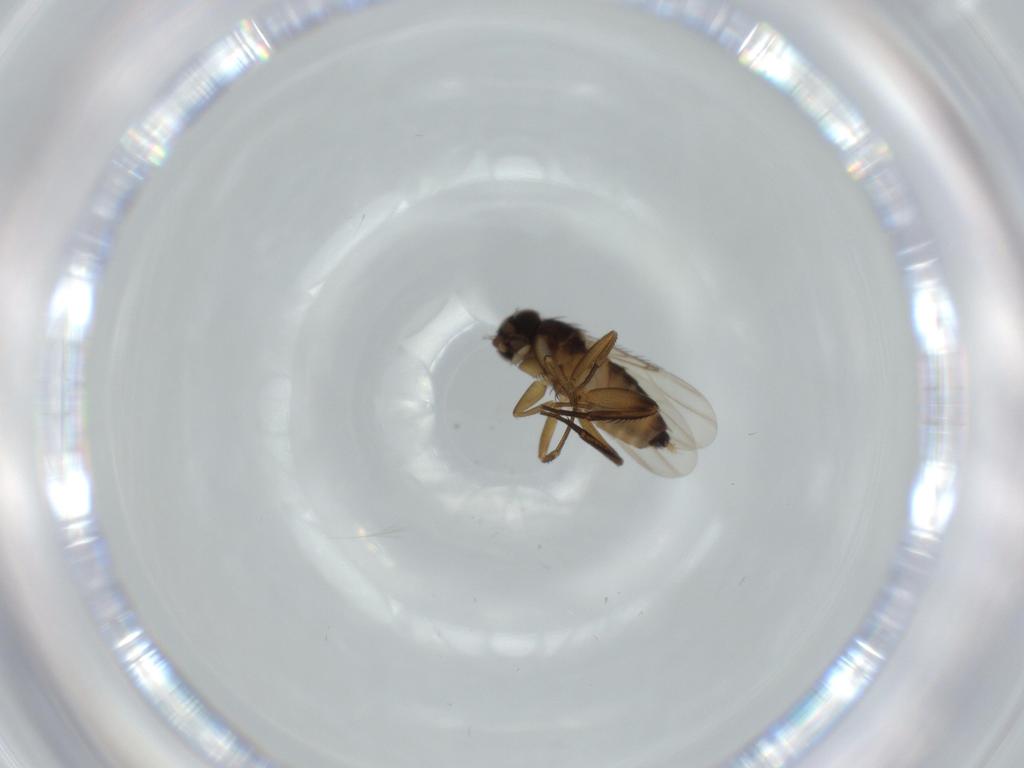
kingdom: Animalia
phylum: Arthropoda
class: Insecta
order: Diptera
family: Phoridae
